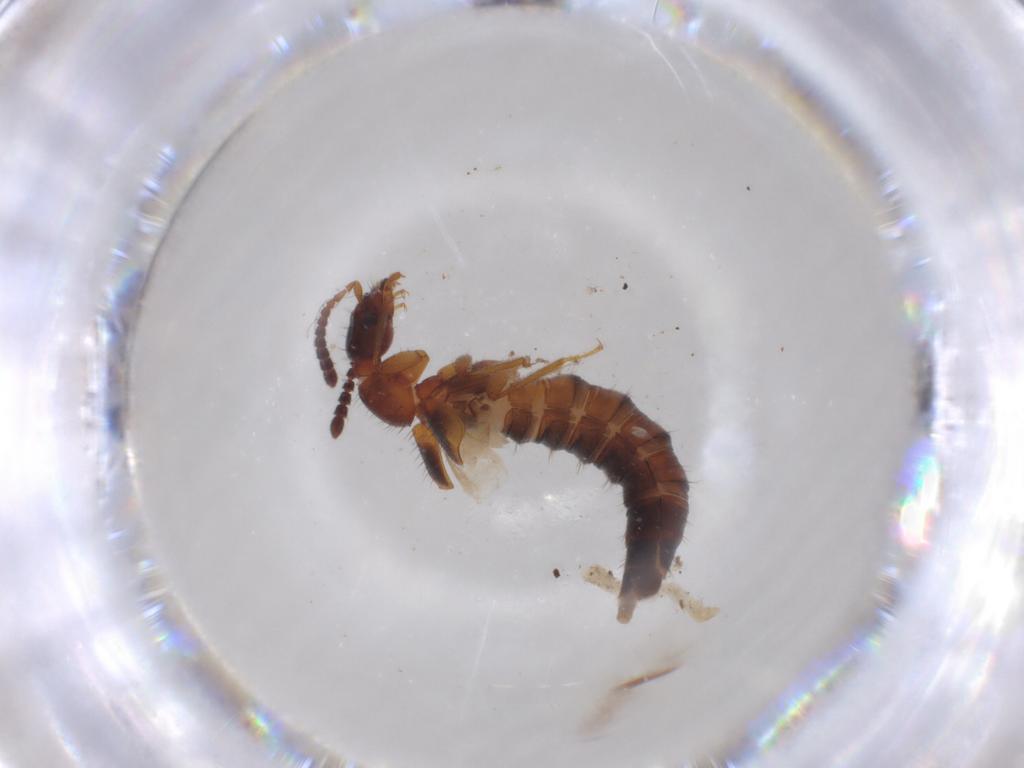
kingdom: Animalia
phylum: Arthropoda
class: Insecta
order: Coleoptera
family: Staphylinidae
